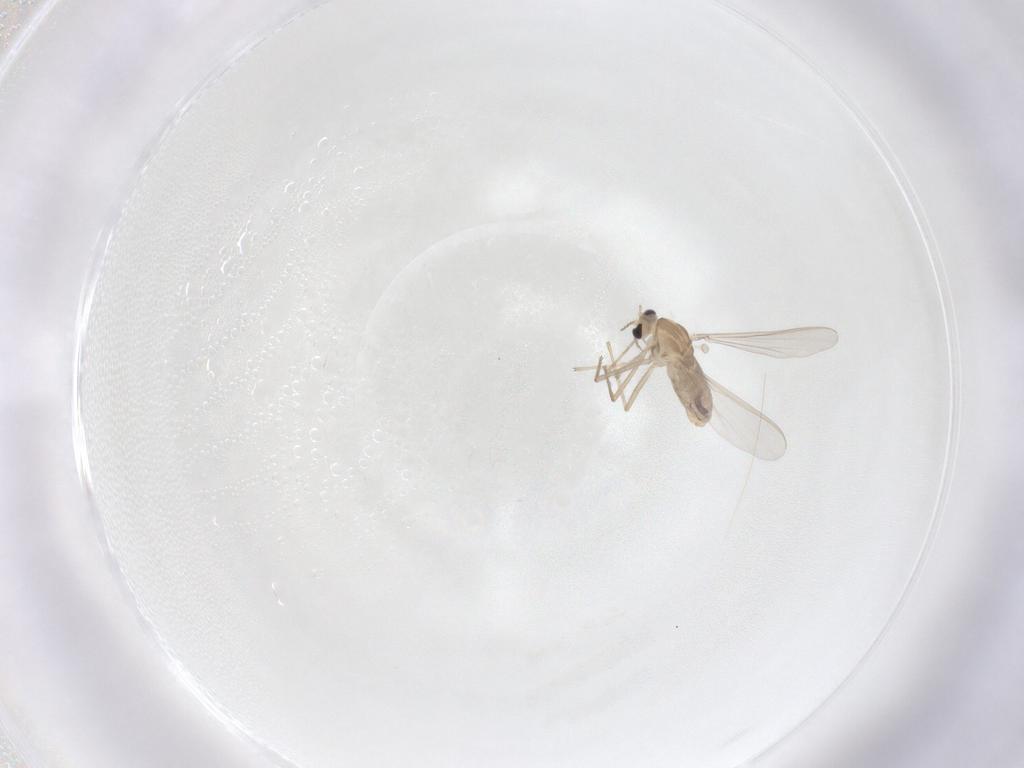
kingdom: Animalia
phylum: Arthropoda
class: Insecta
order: Diptera
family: Chironomidae
